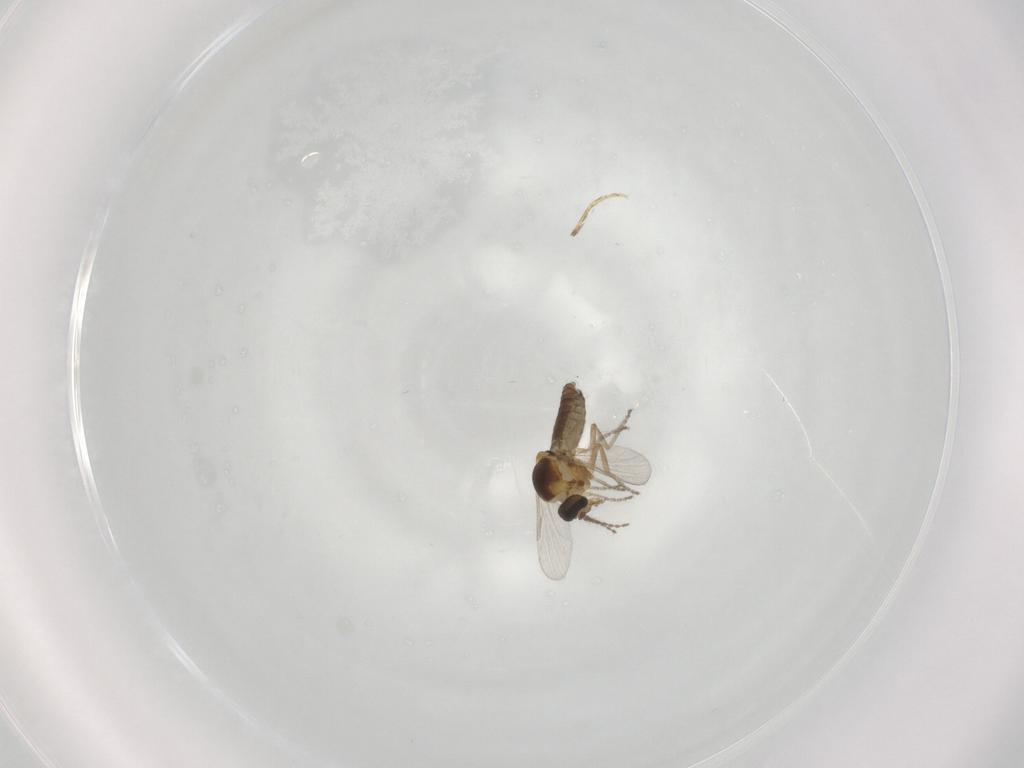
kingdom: Animalia
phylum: Arthropoda
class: Insecta
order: Diptera
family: Ceratopogonidae
